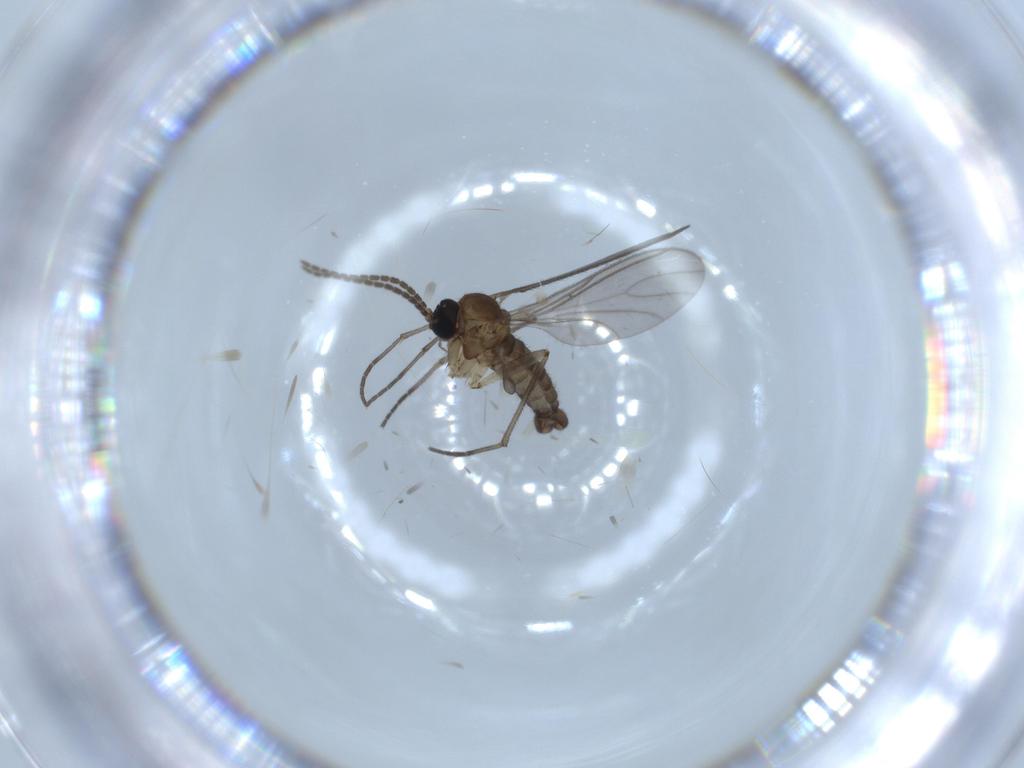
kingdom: Animalia
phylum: Arthropoda
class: Insecta
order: Diptera
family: Sciaridae
